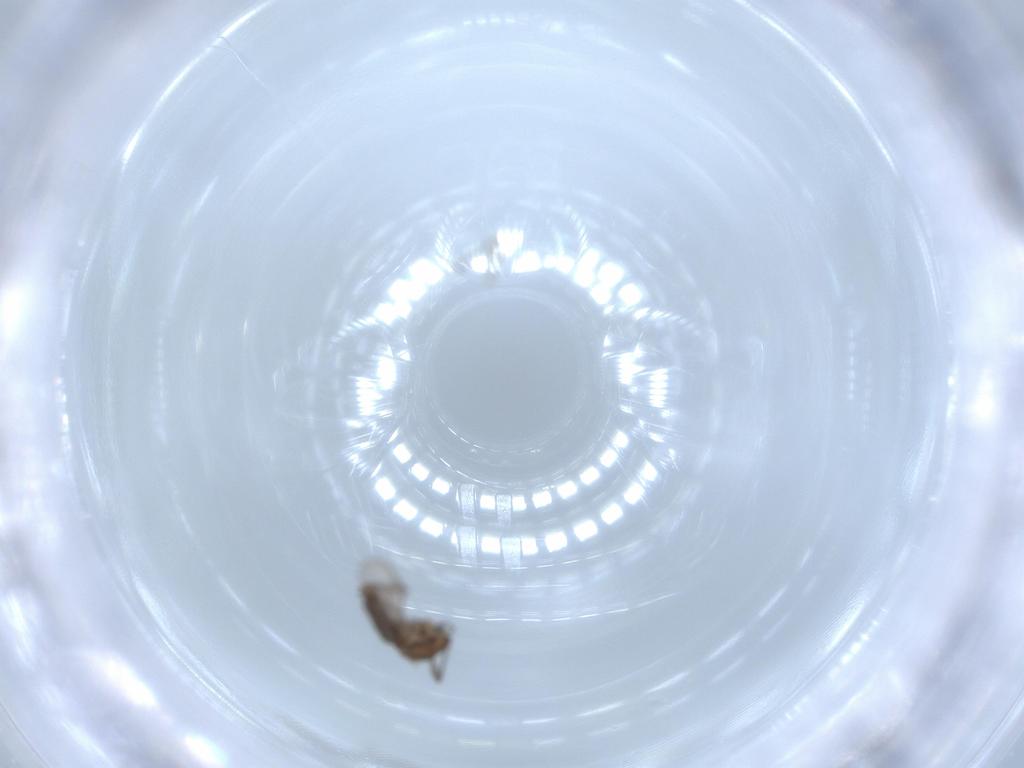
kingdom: Animalia
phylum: Arthropoda
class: Insecta
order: Diptera
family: Chironomidae
